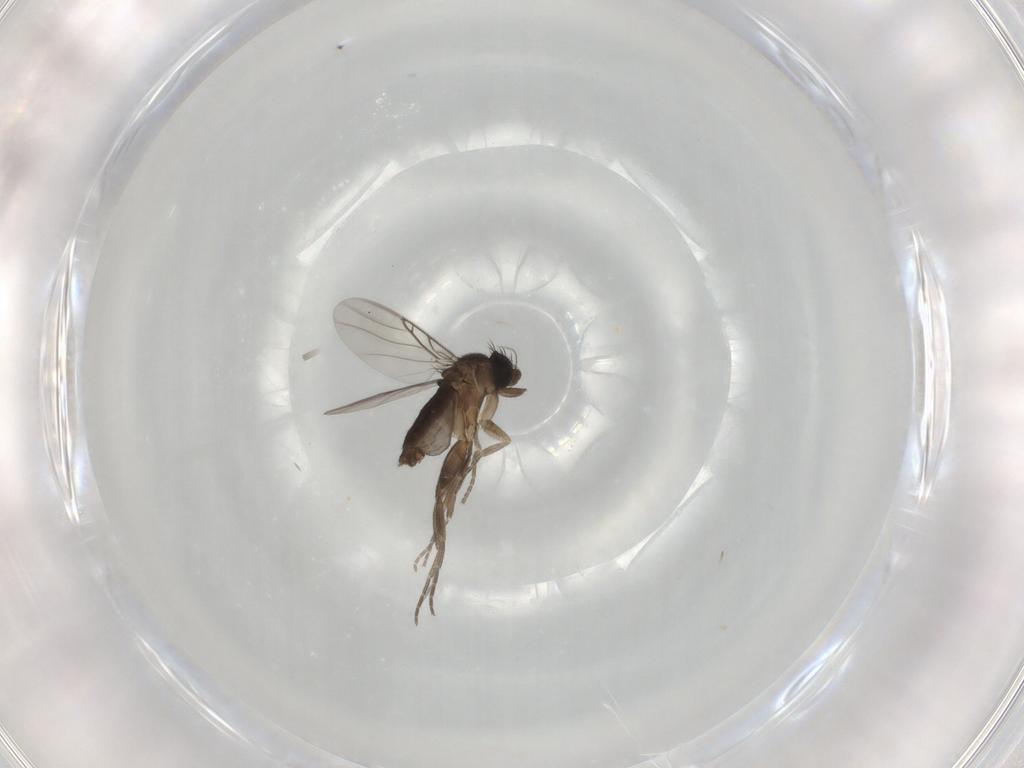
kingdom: Animalia
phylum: Arthropoda
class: Insecta
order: Diptera
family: Phoridae
